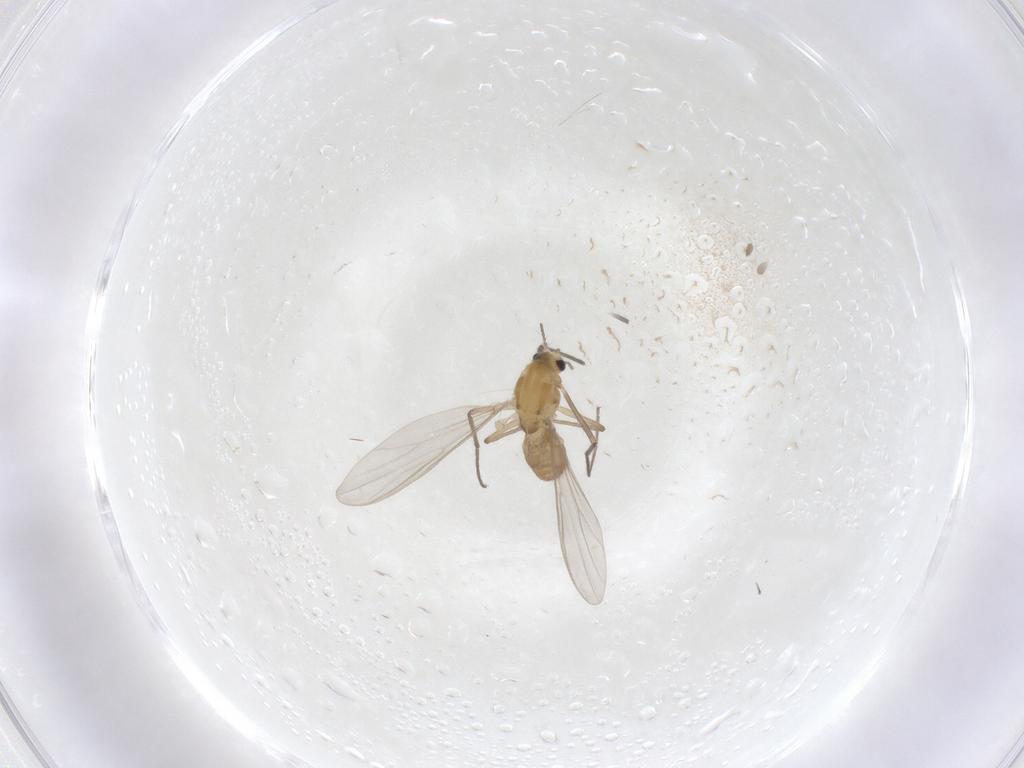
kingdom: Animalia
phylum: Arthropoda
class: Insecta
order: Diptera
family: Chironomidae
